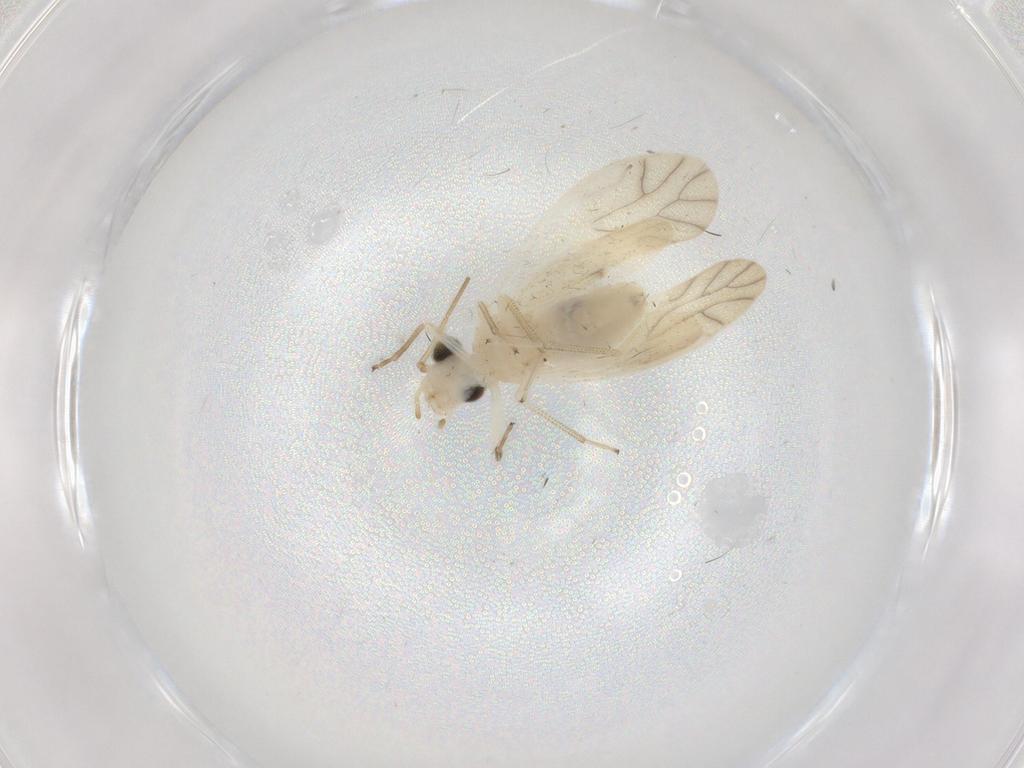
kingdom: Animalia
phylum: Arthropoda
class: Insecta
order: Psocodea
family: Caeciliusidae
